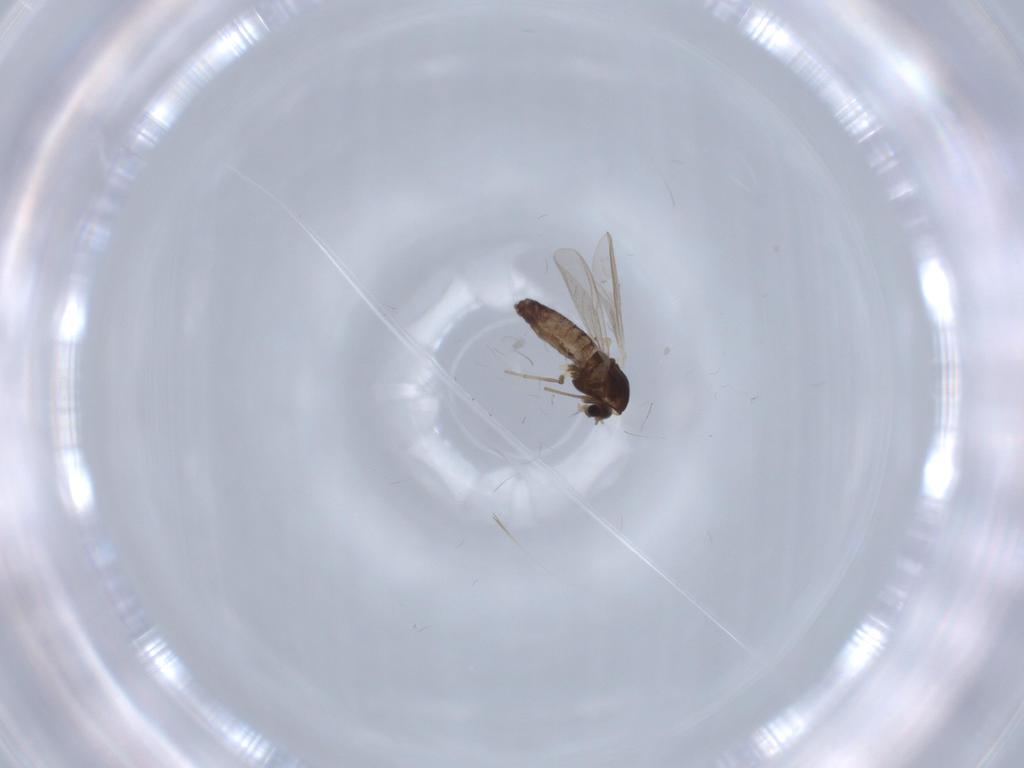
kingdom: Animalia
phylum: Arthropoda
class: Insecta
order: Diptera
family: Chironomidae
